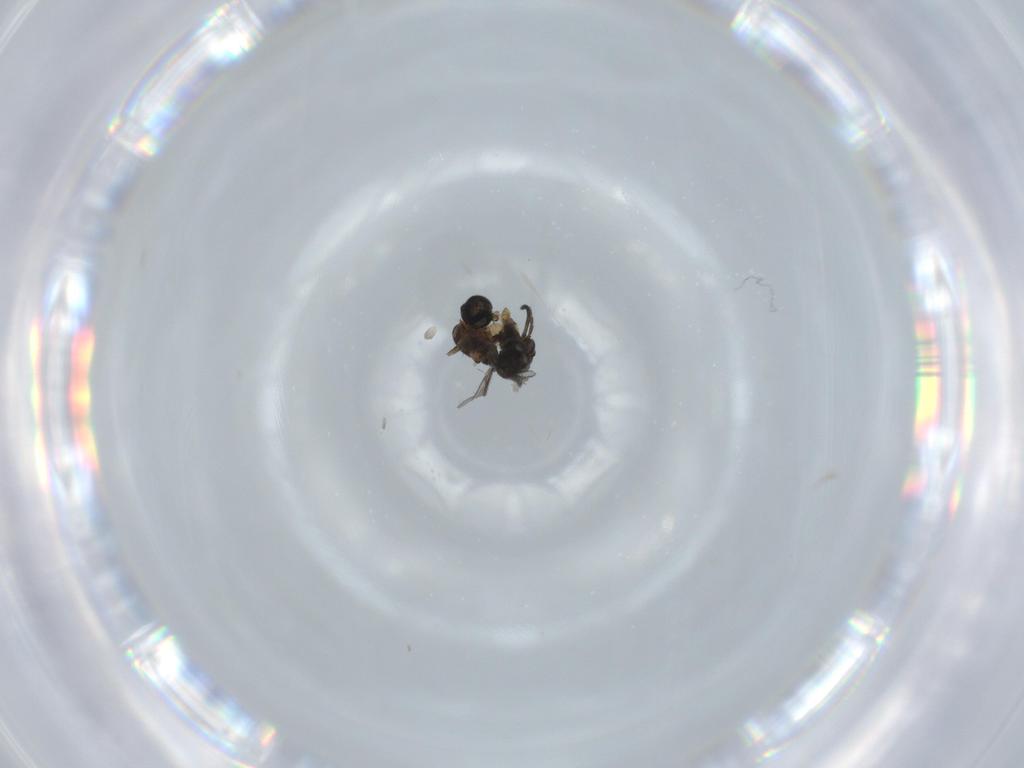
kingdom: Animalia
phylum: Arthropoda
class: Insecta
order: Diptera
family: Sciaridae
